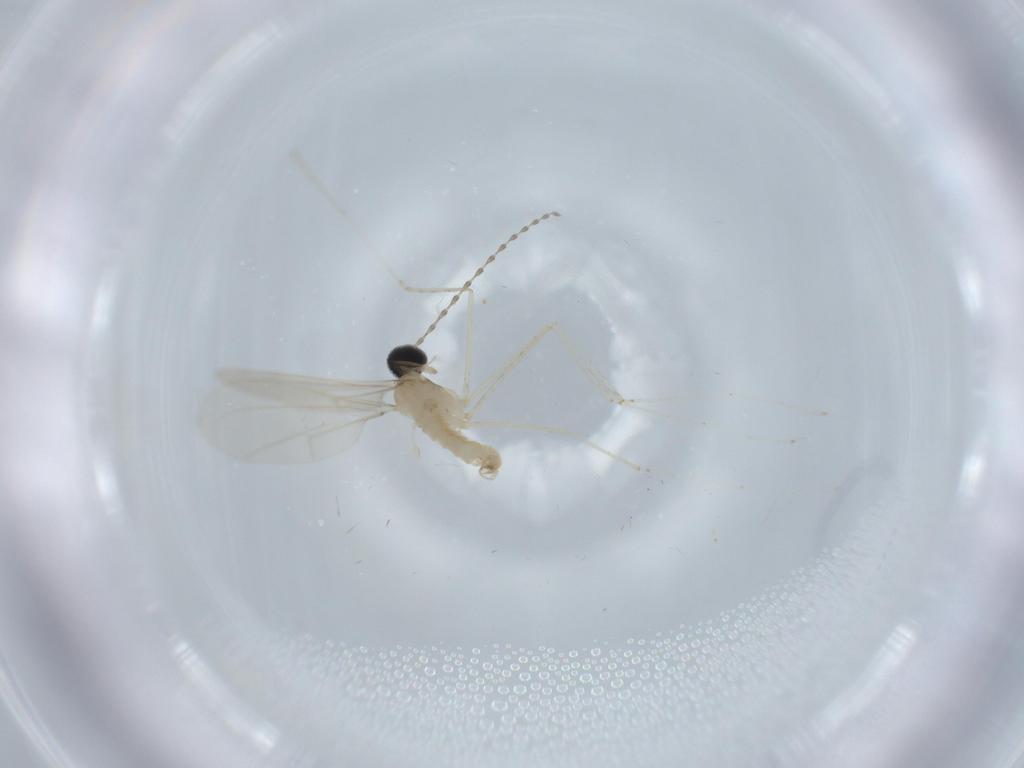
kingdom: Animalia
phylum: Arthropoda
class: Insecta
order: Diptera
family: Cecidomyiidae
